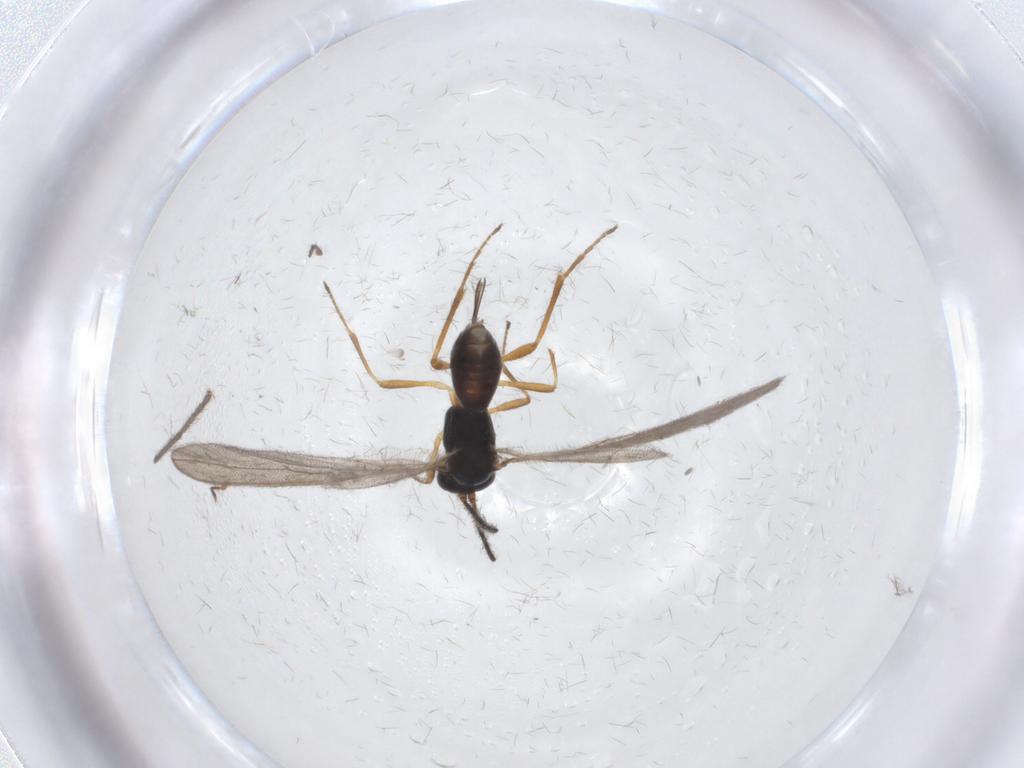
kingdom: Animalia
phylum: Arthropoda
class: Insecta
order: Hymenoptera
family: Braconidae
